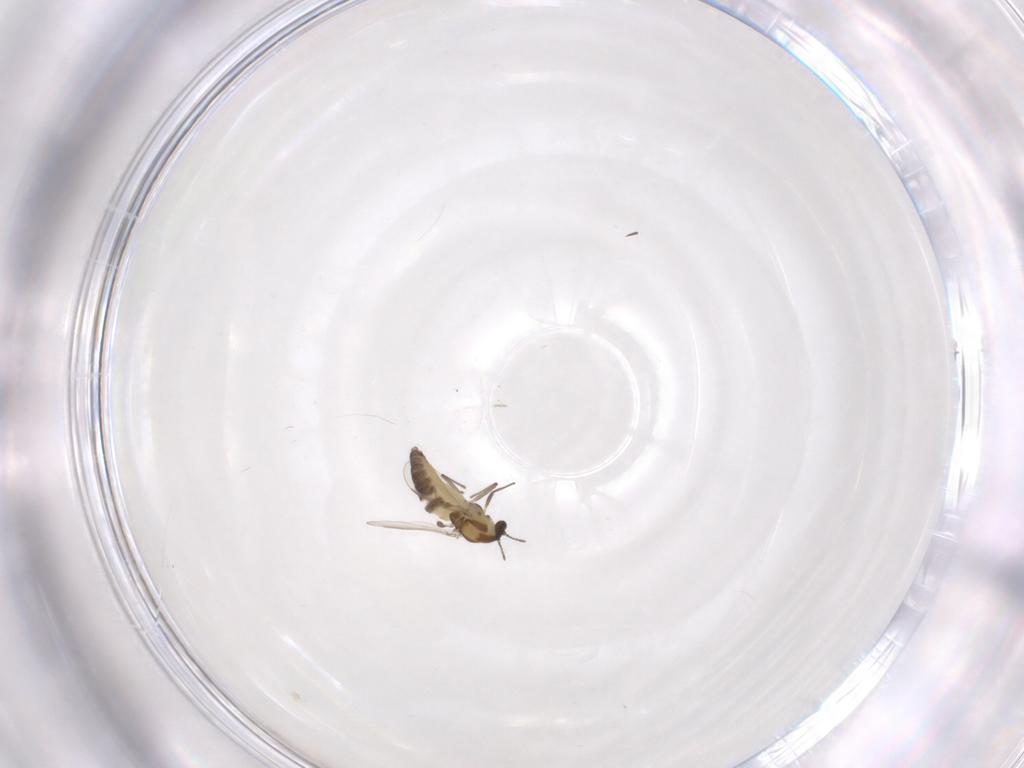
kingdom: Animalia
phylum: Arthropoda
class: Insecta
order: Diptera
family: Chironomidae
